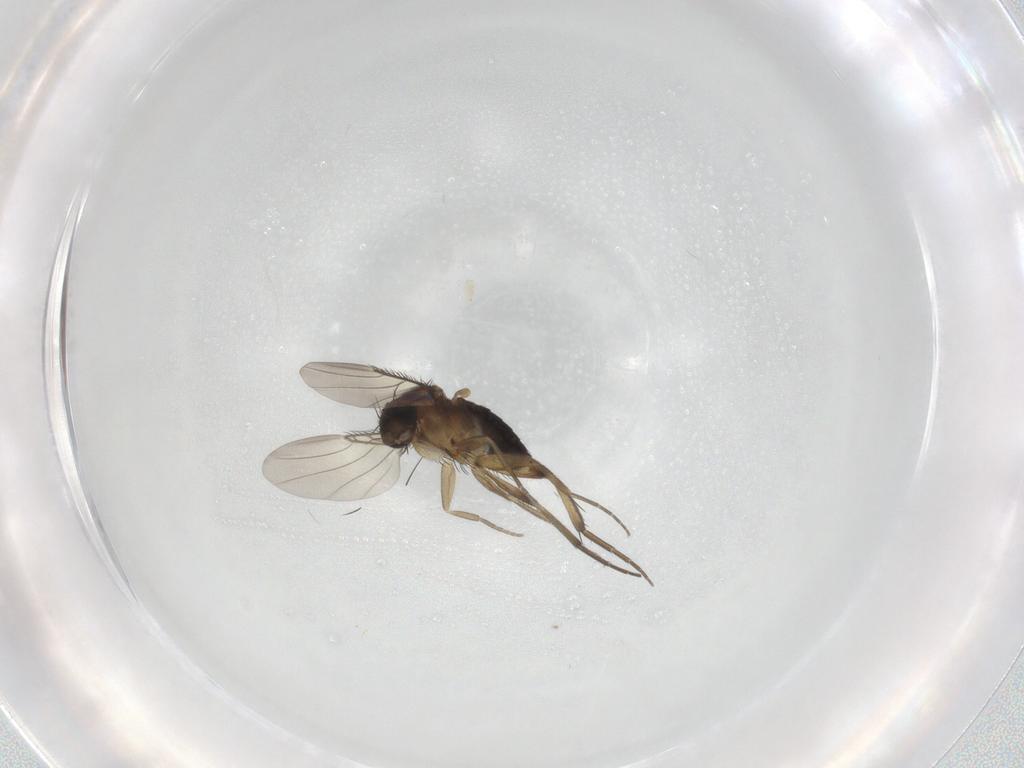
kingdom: Animalia
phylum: Arthropoda
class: Insecta
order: Diptera
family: Phoridae
